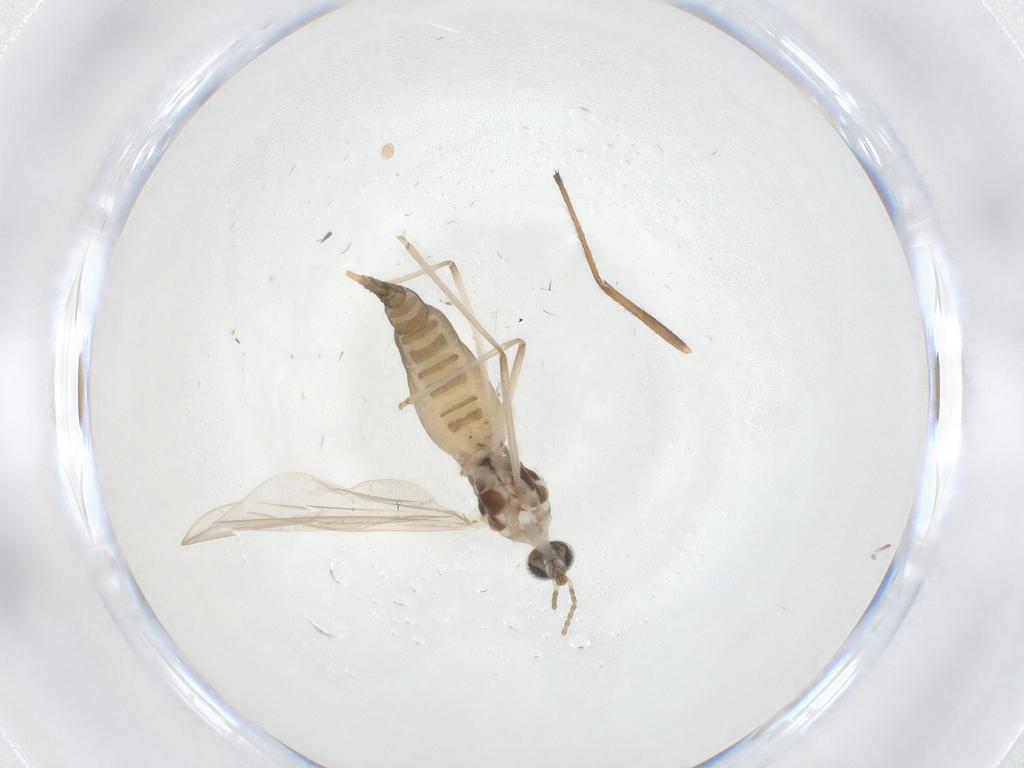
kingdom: Animalia
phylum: Arthropoda
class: Insecta
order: Diptera
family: Cecidomyiidae
